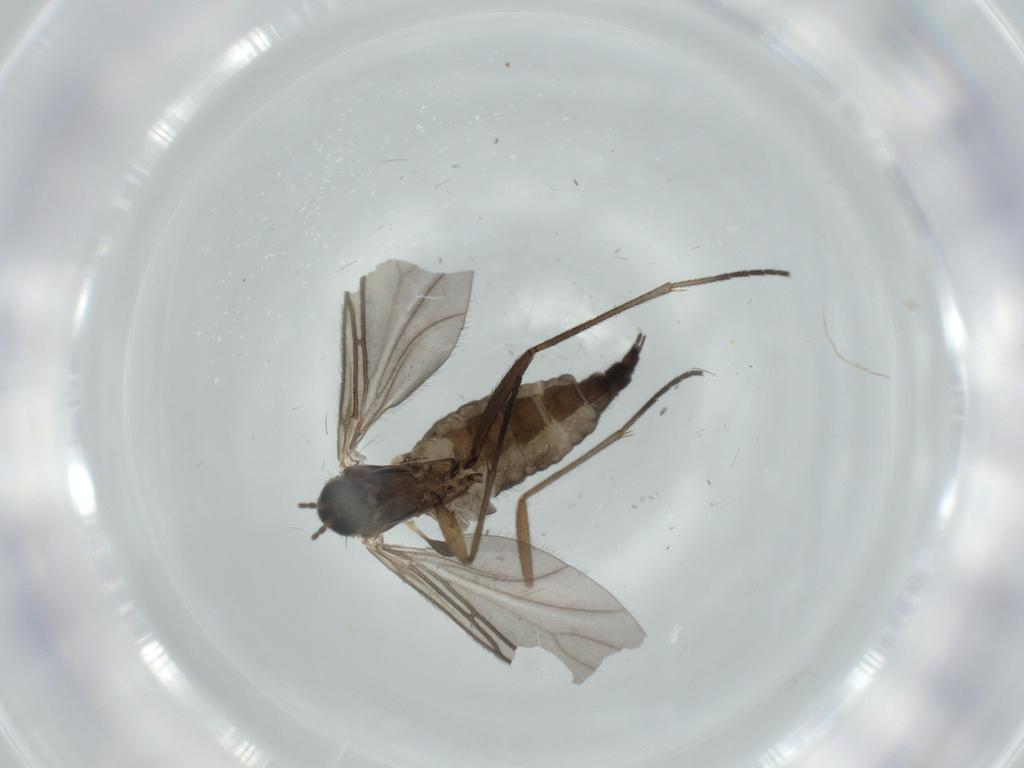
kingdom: Animalia
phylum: Arthropoda
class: Insecta
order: Diptera
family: Sciaridae
